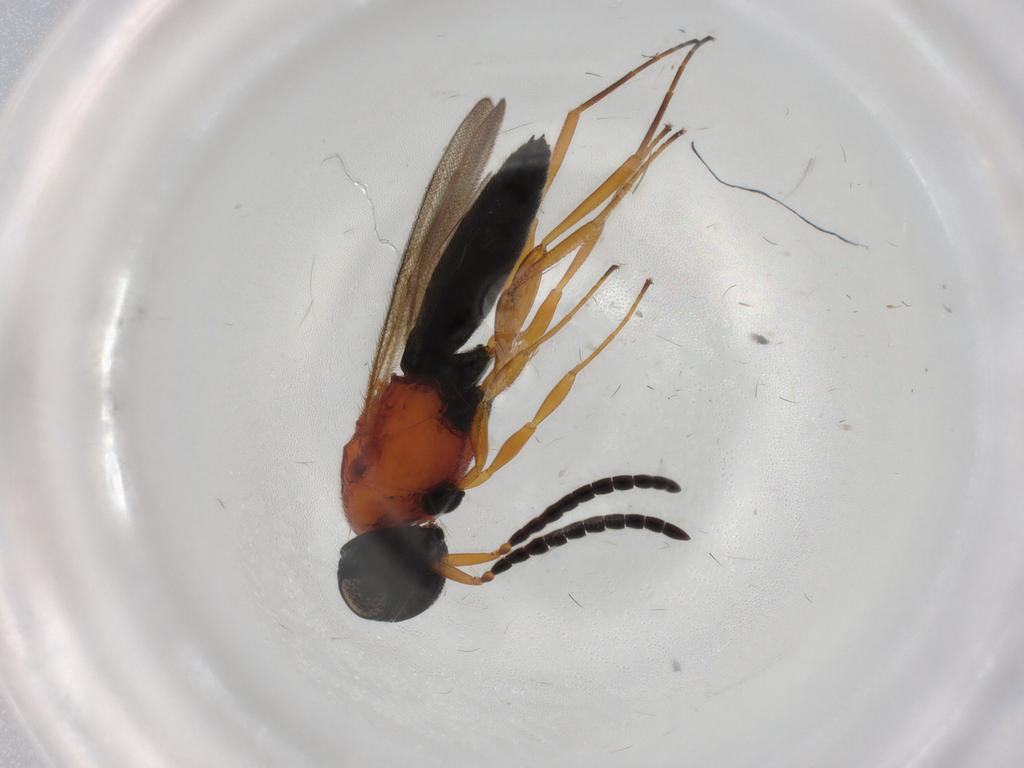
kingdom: Animalia
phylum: Arthropoda
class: Insecta
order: Hymenoptera
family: Scelionidae
